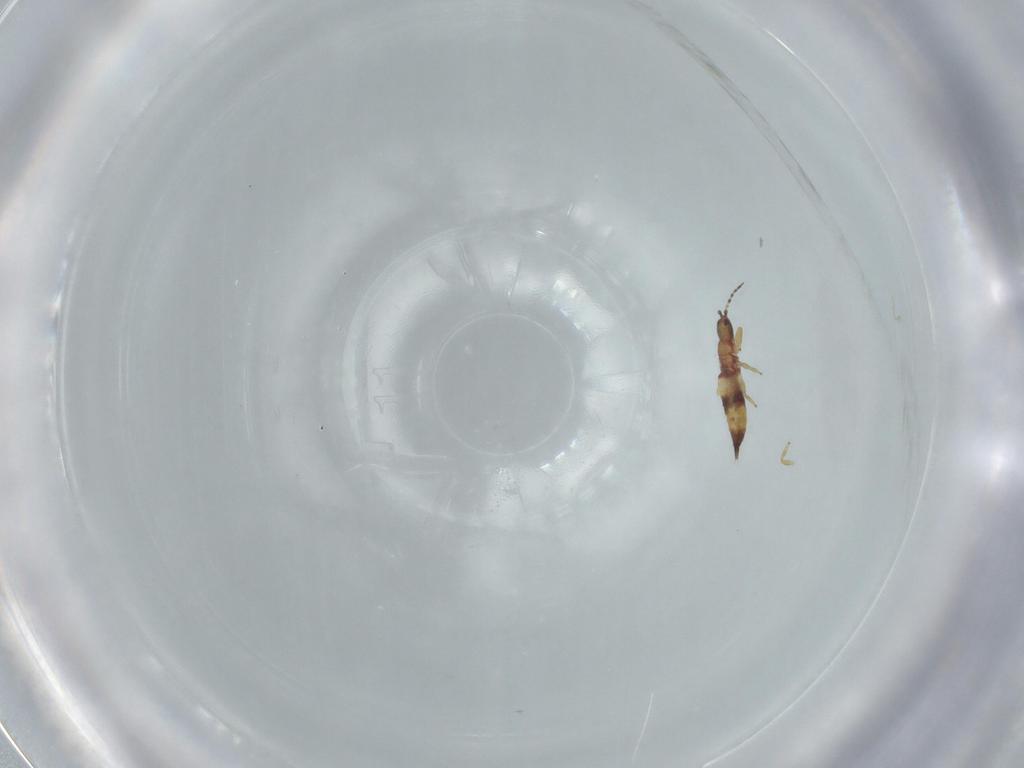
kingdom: Animalia
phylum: Arthropoda
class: Insecta
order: Thysanoptera
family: Phlaeothripidae
